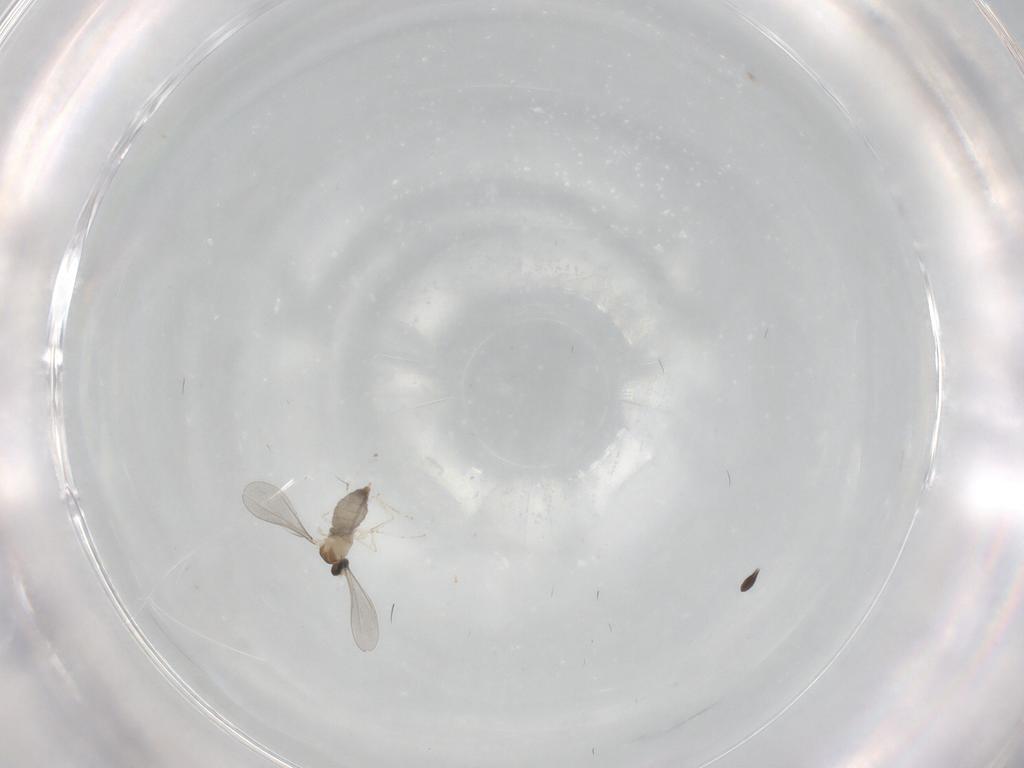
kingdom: Animalia
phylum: Arthropoda
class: Insecta
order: Diptera
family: Sciaridae
